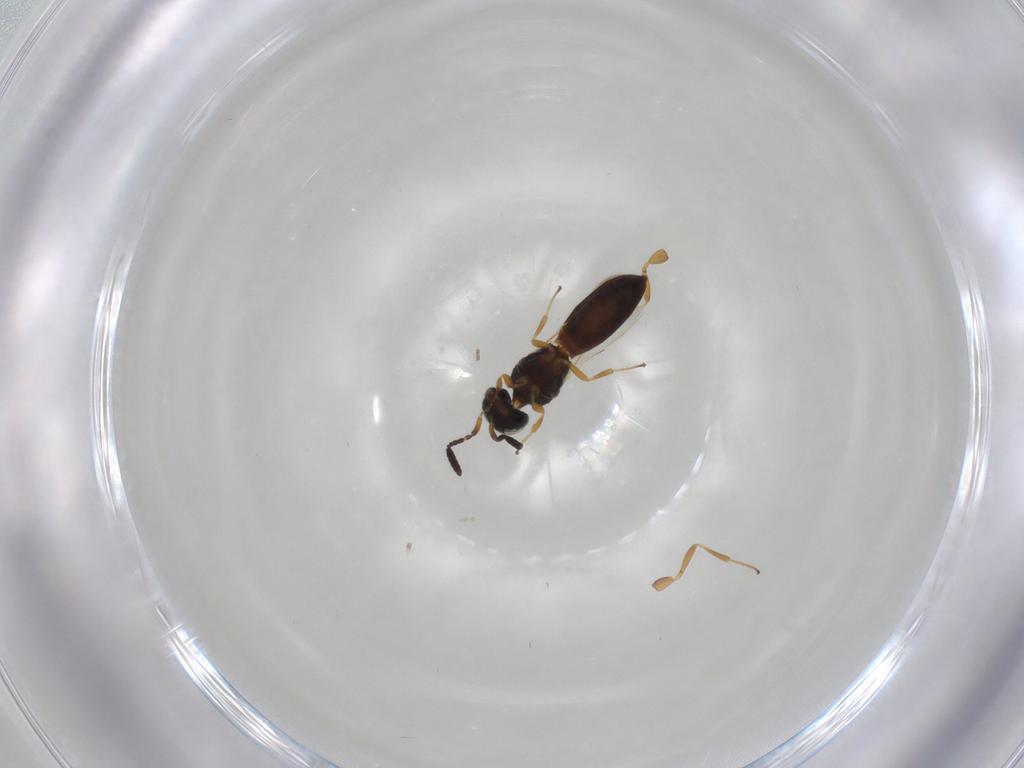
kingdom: Animalia
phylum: Arthropoda
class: Insecta
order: Hymenoptera
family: Scelionidae
